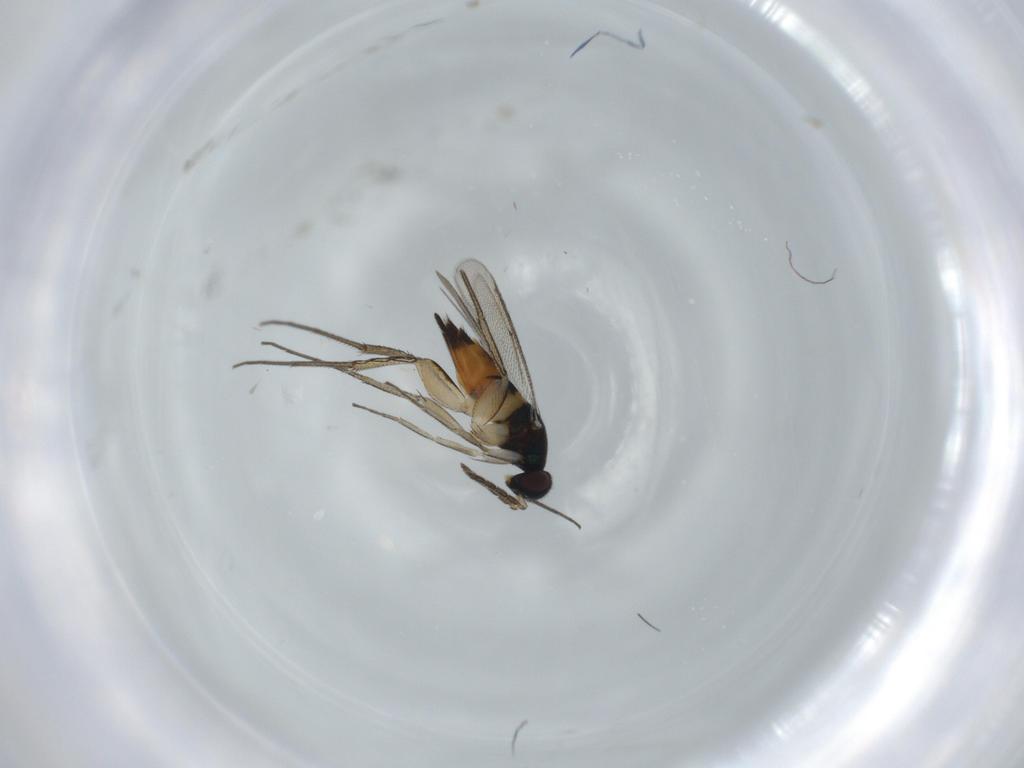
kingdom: Animalia
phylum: Arthropoda
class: Insecta
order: Hymenoptera
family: Eulophidae
